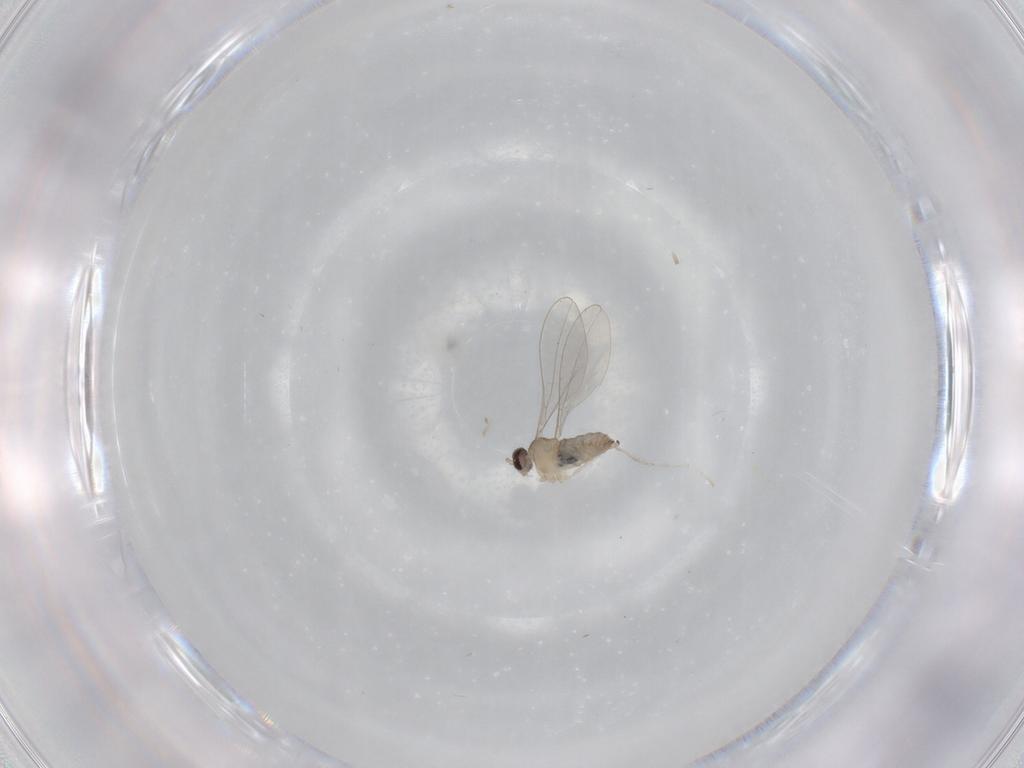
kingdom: Animalia
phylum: Arthropoda
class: Insecta
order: Diptera
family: Cecidomyiidae
